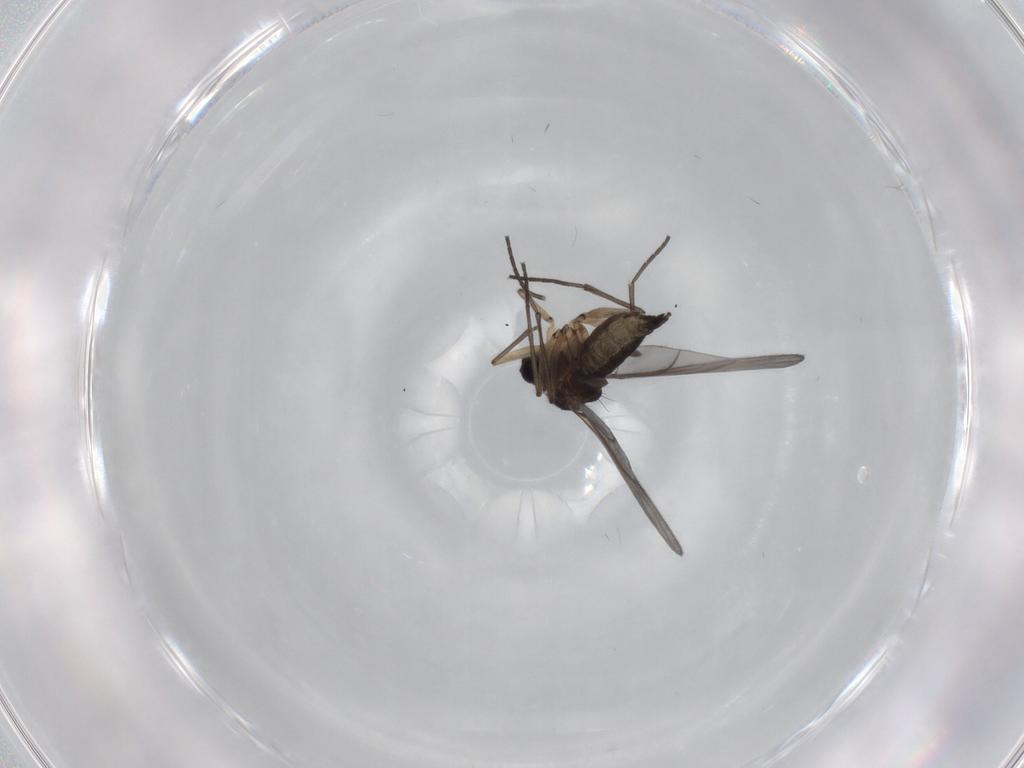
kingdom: Animalia
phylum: Arthropoda
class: Insecta
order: Diptera
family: Sciaridae
